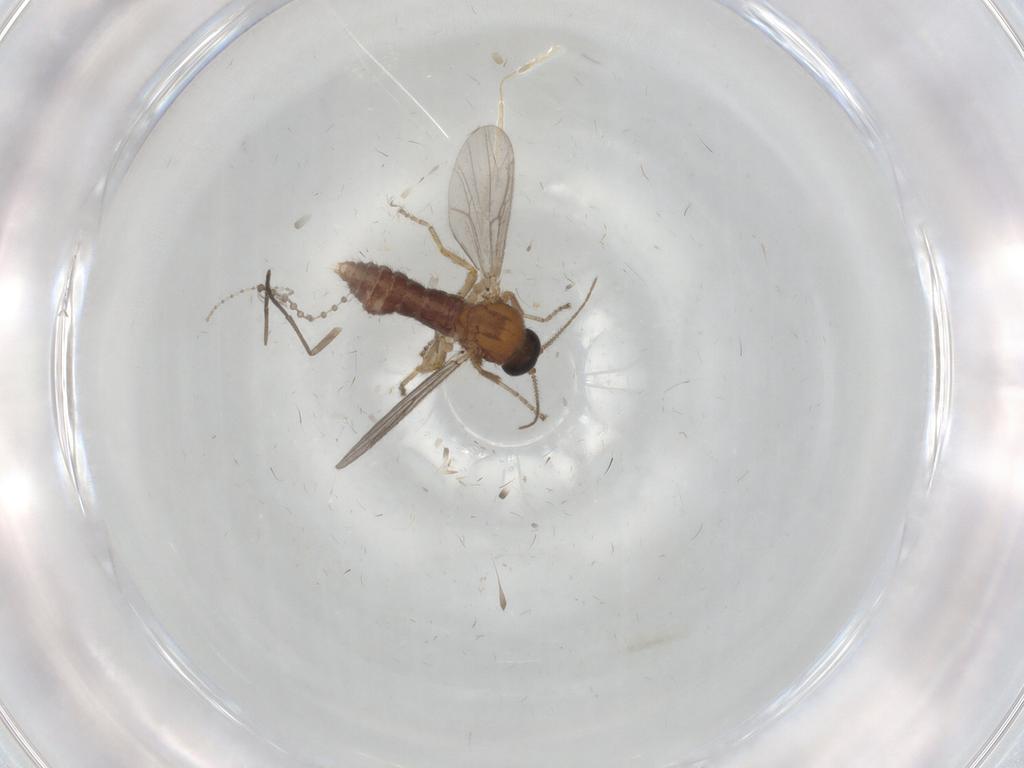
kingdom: Animalia
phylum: Arthropoda
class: Insecta
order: Diptera
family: Ceratopogonidae
